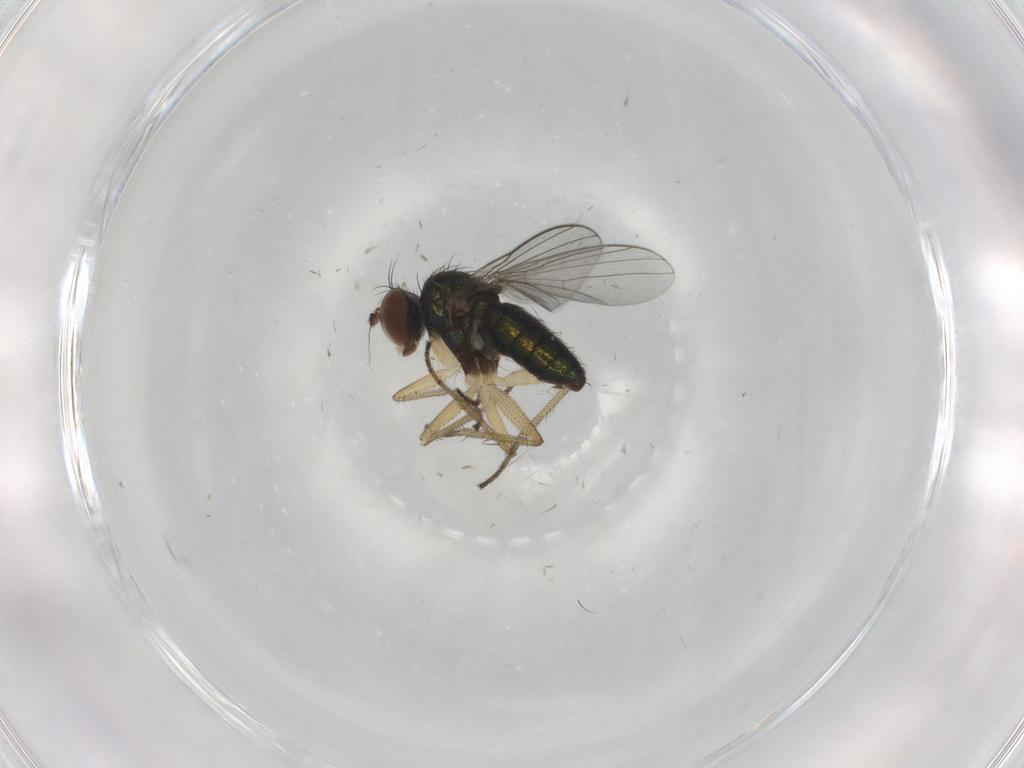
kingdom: Animalia
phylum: Arthropoda
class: Insecta
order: Diptera
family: Dolichopodidae
